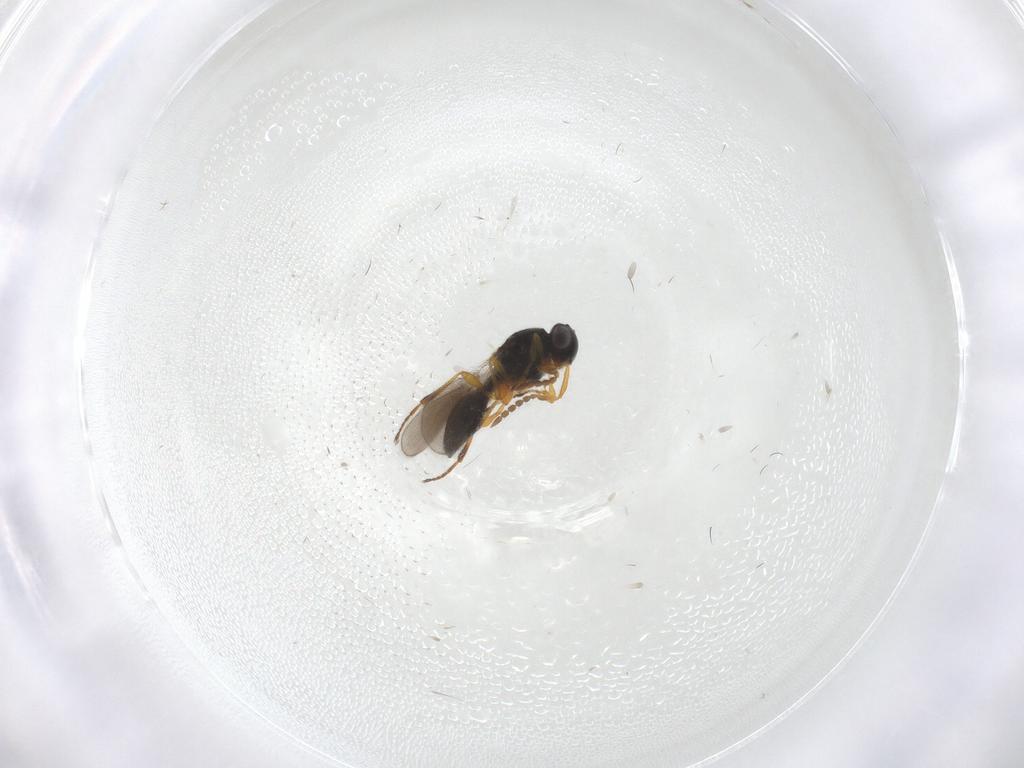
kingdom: Animalia
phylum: Arthropoda
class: Insecta
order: Hymenoptera
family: Platygastridae
